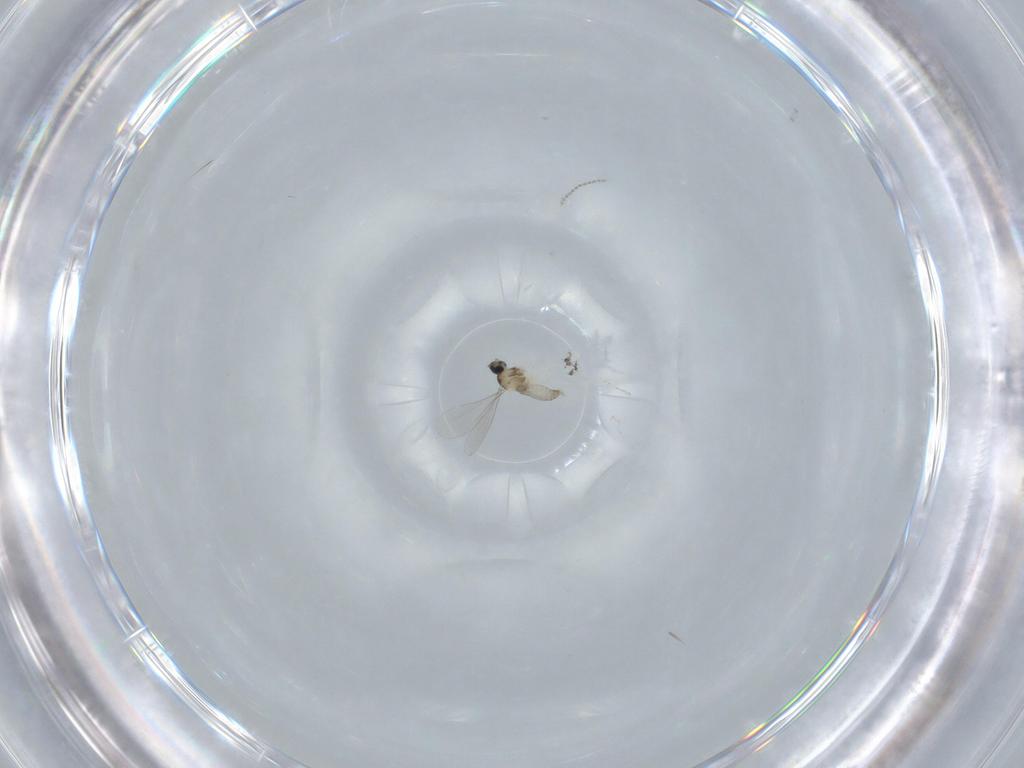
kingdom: Animalia
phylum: Arthropoda
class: Insecta
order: Diptera
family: Cecidomyiidae
